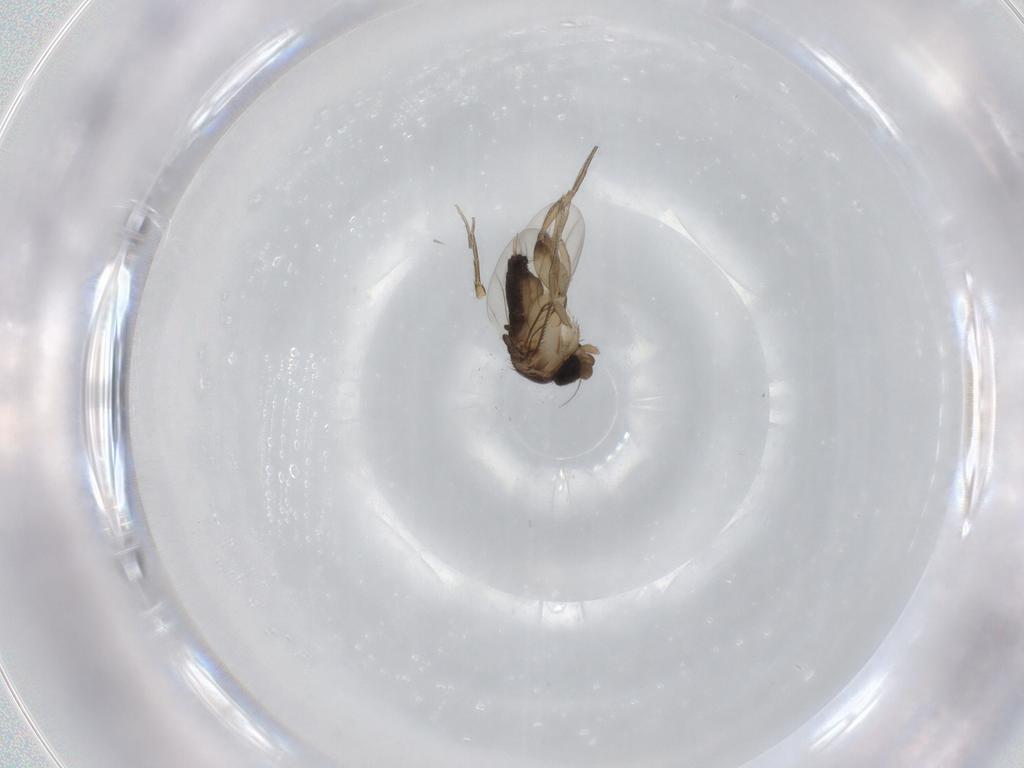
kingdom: Animalia
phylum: Arthropoda
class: Insecta
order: Diptera
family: Phoridae
